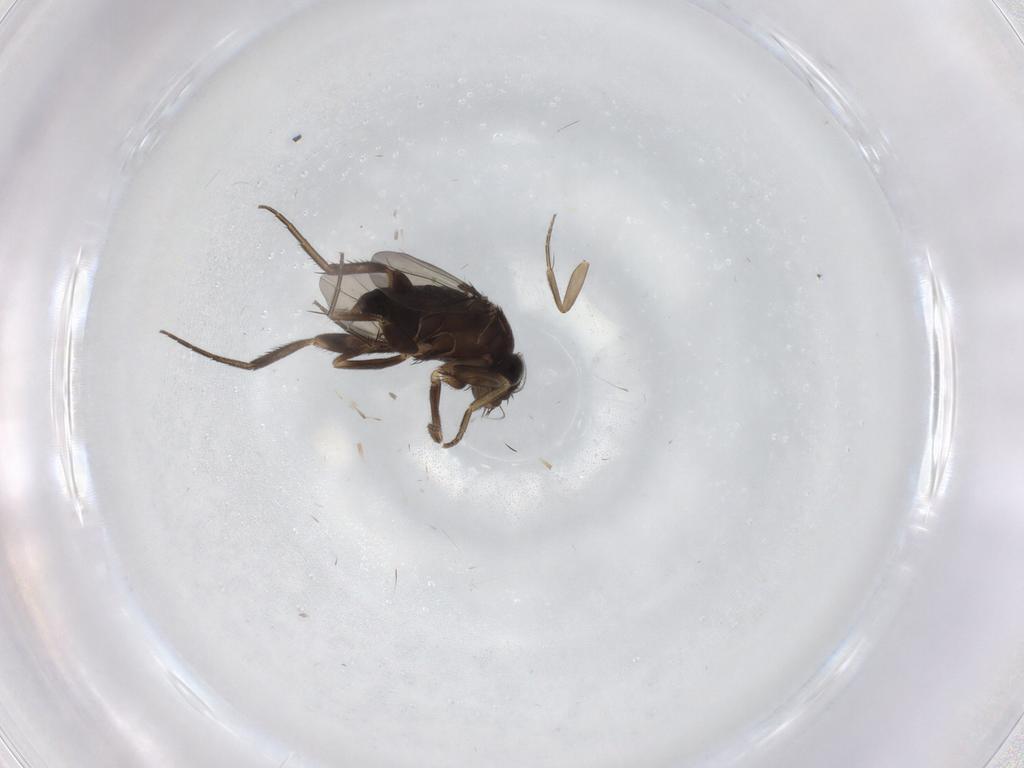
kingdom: Animalia
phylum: Arthropoda
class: Insecta
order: Diptera
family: Phoridae
